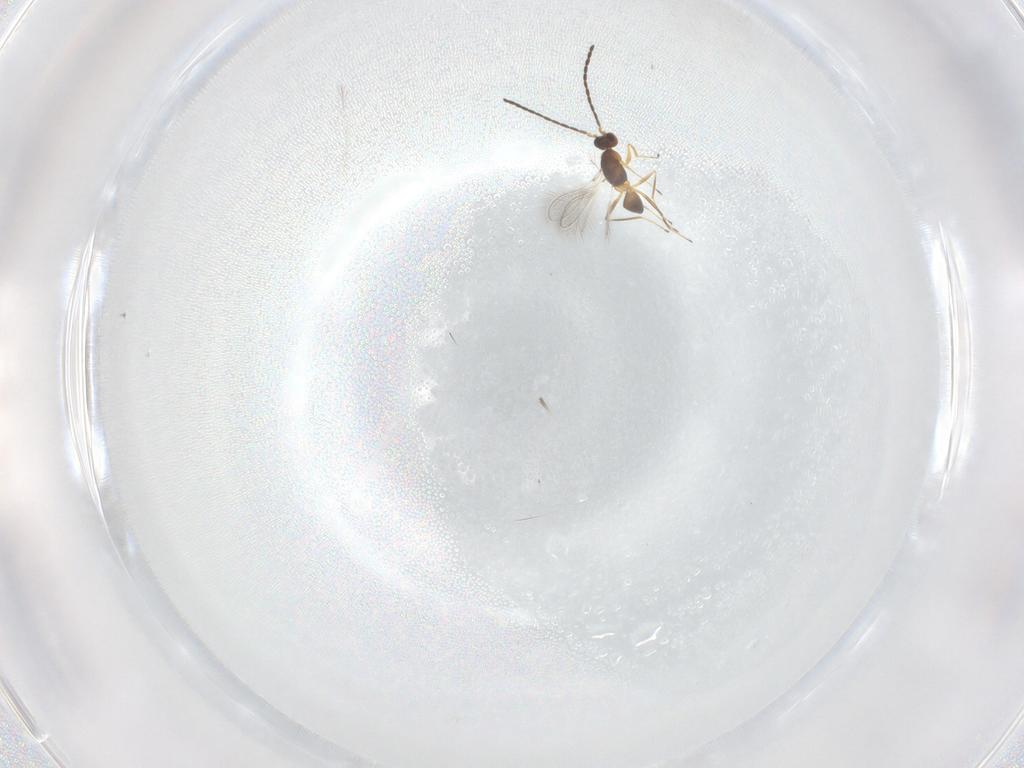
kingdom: Animalia
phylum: Arthropoda
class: Insecta
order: Hymenoptera
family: Mymaridae
